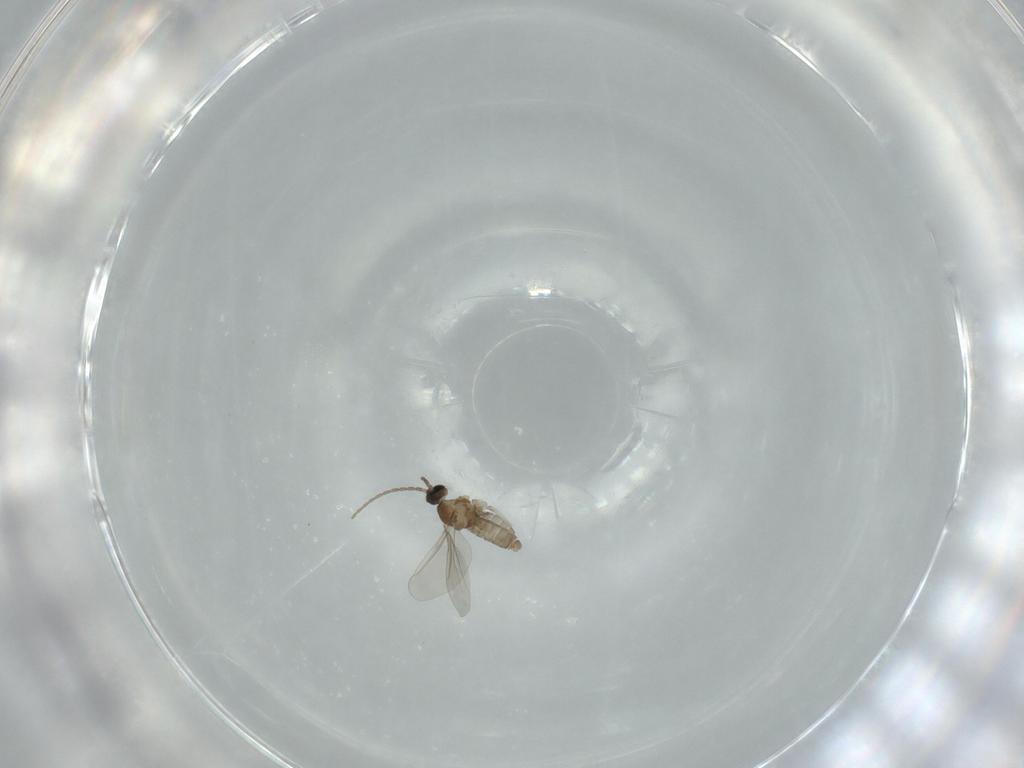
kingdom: Animalia
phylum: Arthropoda
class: Insecta
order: Diptera
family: Cecidomyiidae
